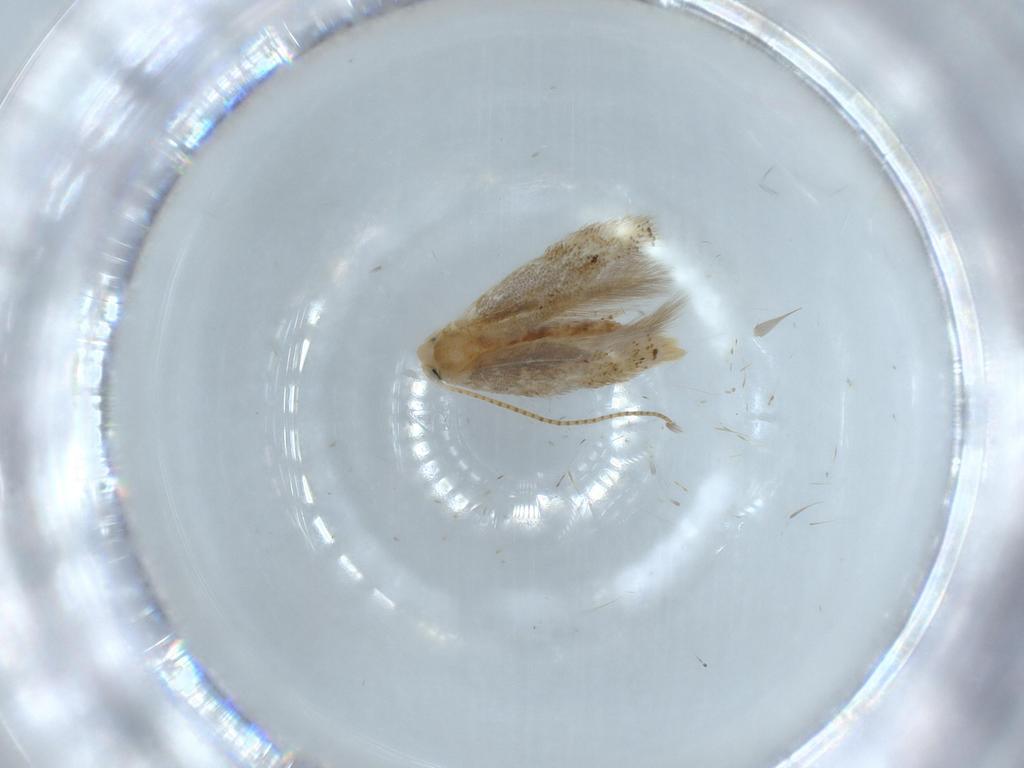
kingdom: Animalia
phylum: Arthropoda
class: Insecta
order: Lepidoptera
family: Bucculatricidae
